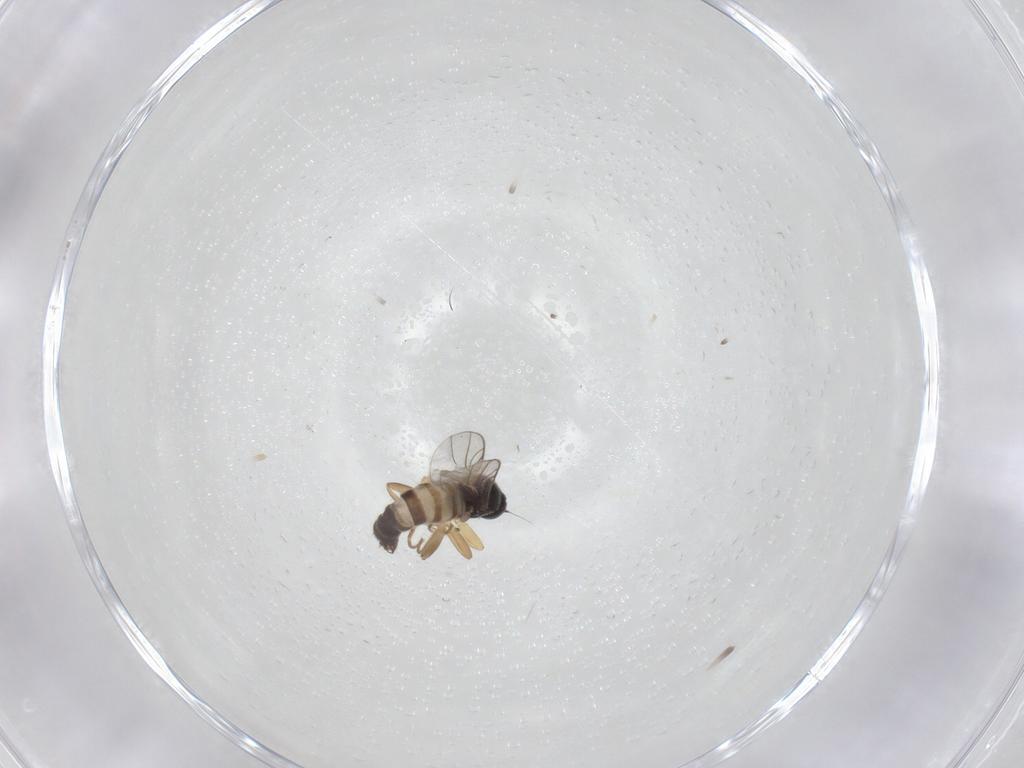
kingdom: Animalia
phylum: Arthropoda
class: Insecta
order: Diptera
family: Hybotidae
